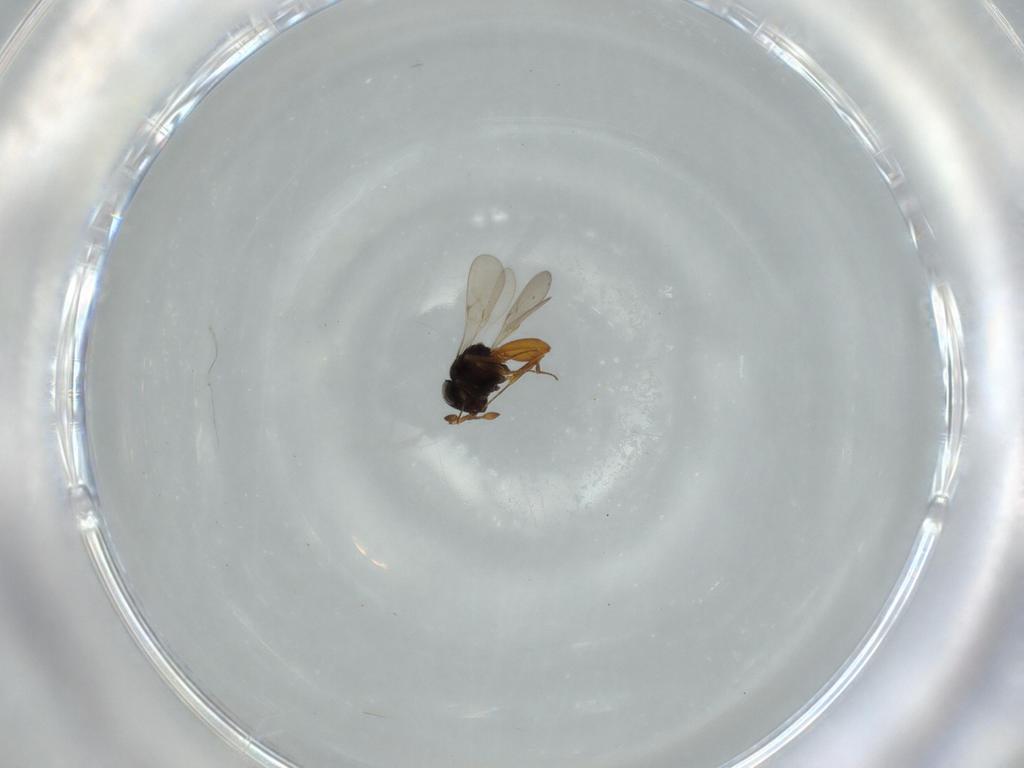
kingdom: Animalia
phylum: Arthropoda
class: Insecta
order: Hymenoptera
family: Scelionidae
